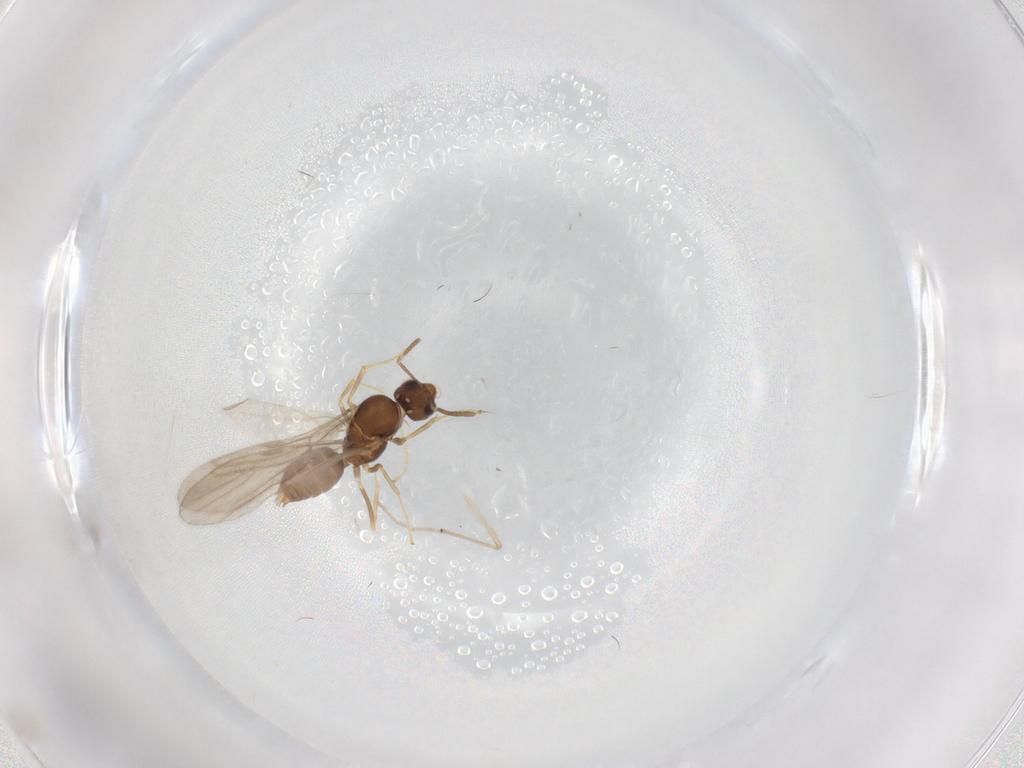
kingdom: Animalia
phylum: Arthropoda
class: Insecta
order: Hymenoptera
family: Formicidae
